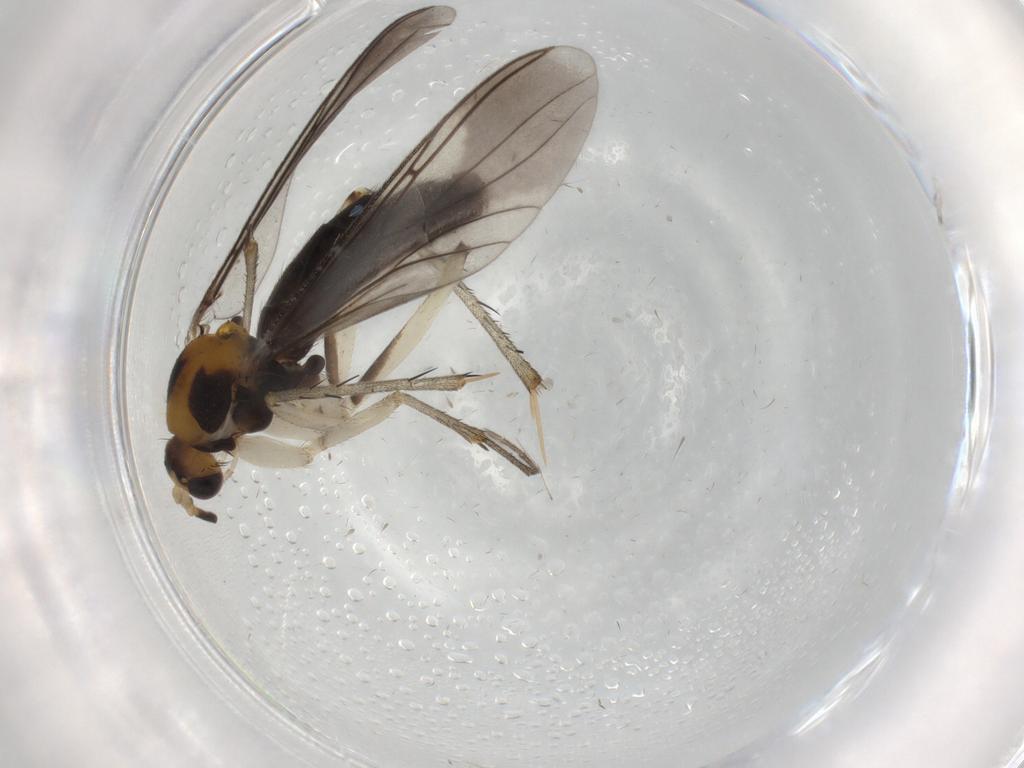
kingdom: Animalia
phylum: Arthropoda
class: Insecta
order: Diptera
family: Mycetophilidae
